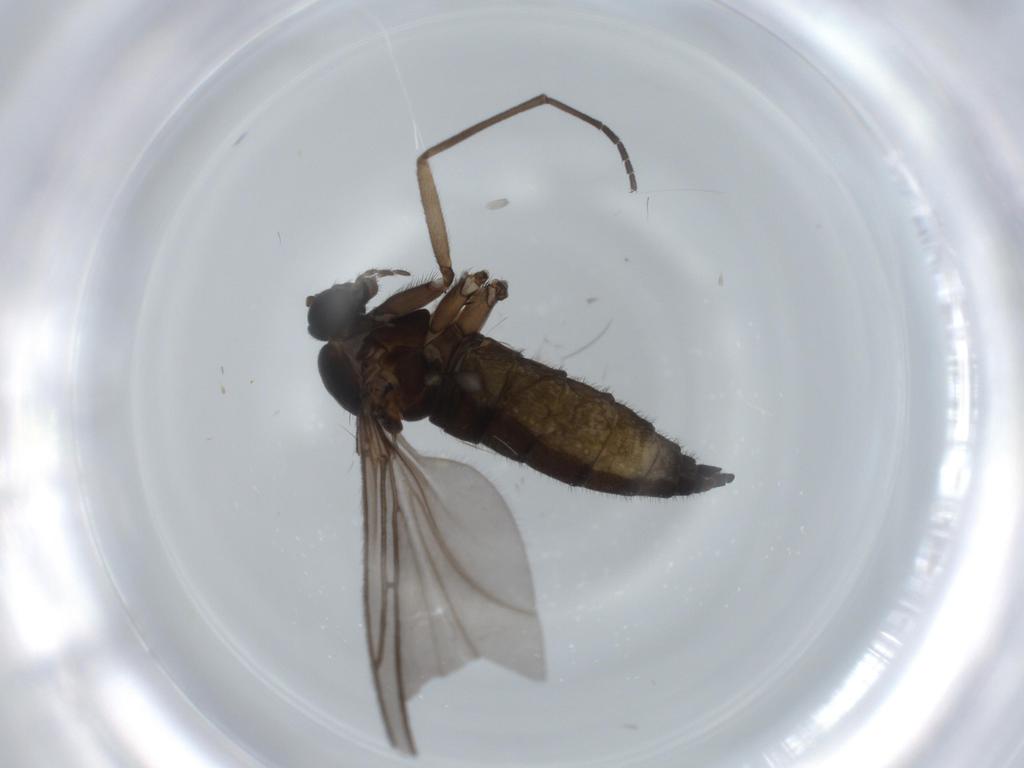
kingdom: Animalia
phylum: Arthropoda
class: Insecta
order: Diptera
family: Sciaridae
